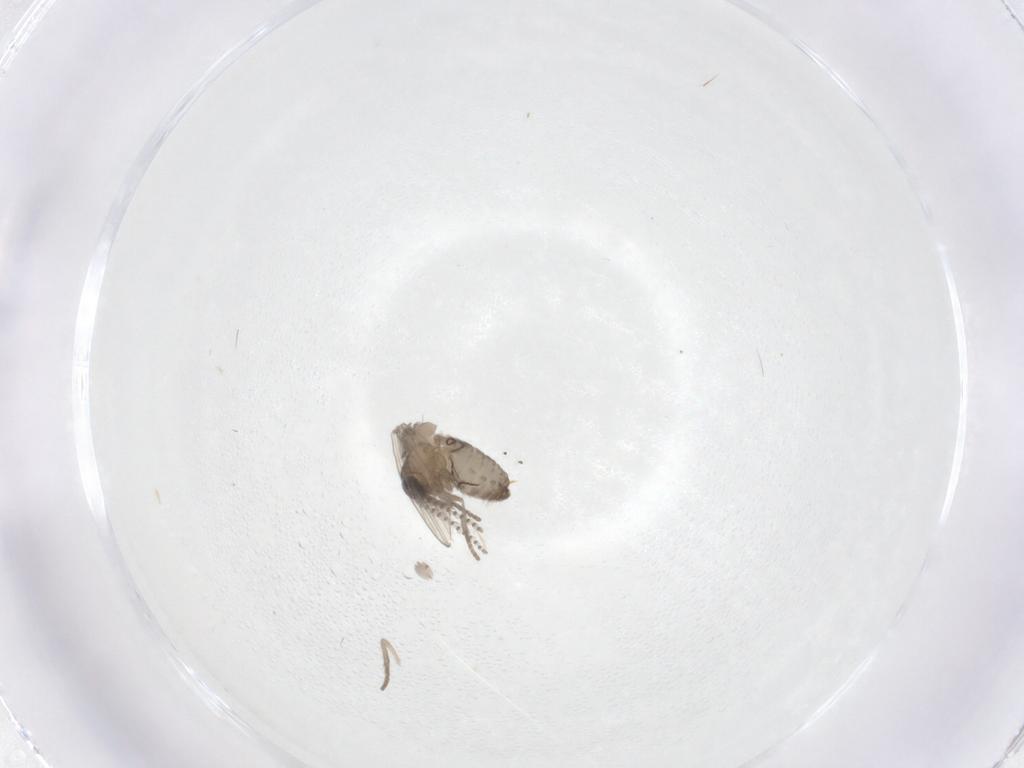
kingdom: Animalia
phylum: Arthropoda
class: Insecta
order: Diptera
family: Psychodidae
